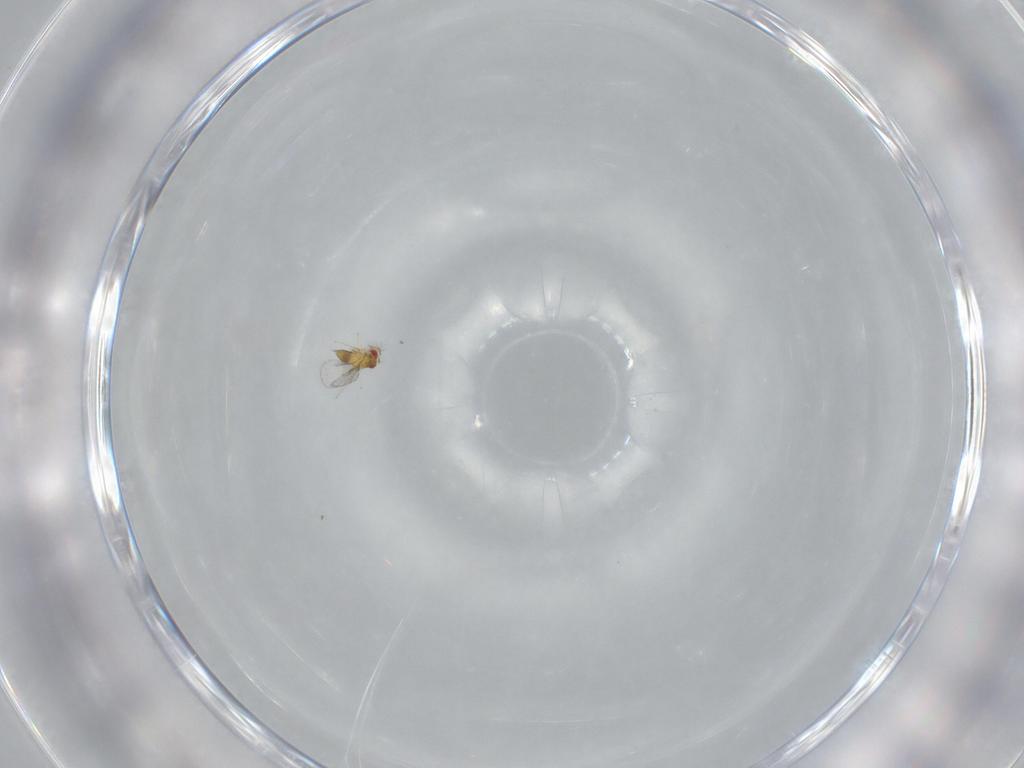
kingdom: Animalia
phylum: Arthropoda
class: Insecta
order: Hymenoptera
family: Trichogrammatidae
